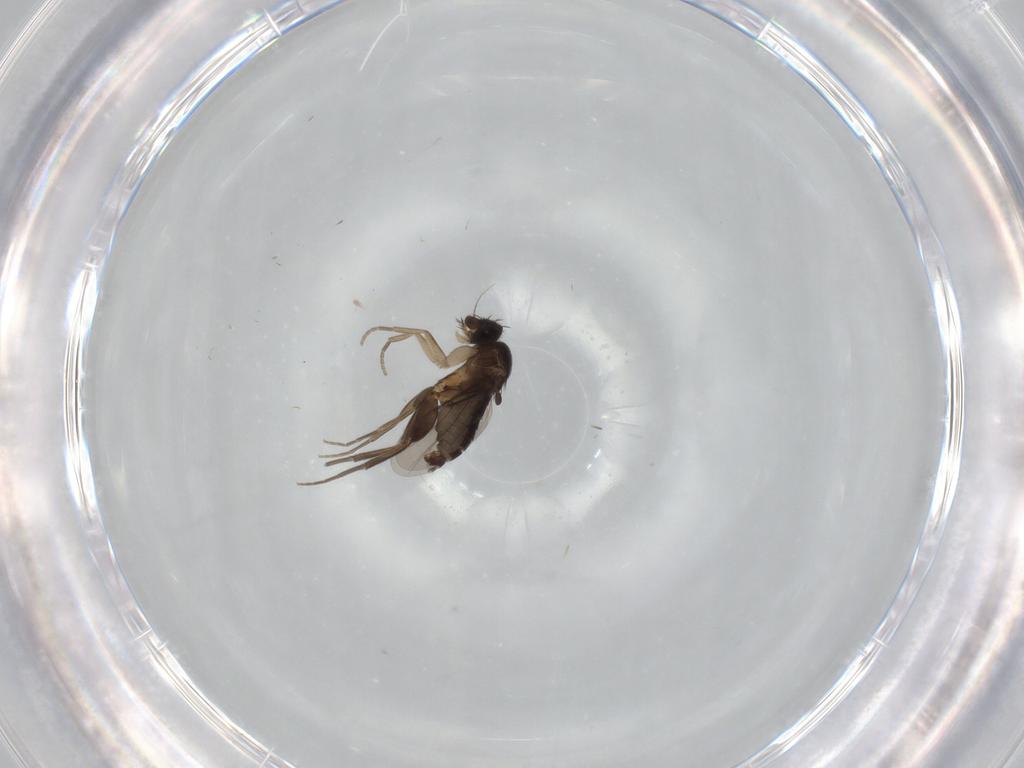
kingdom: Animalia
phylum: Arthropoda
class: Insecta
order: Diptera
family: Phoridae
